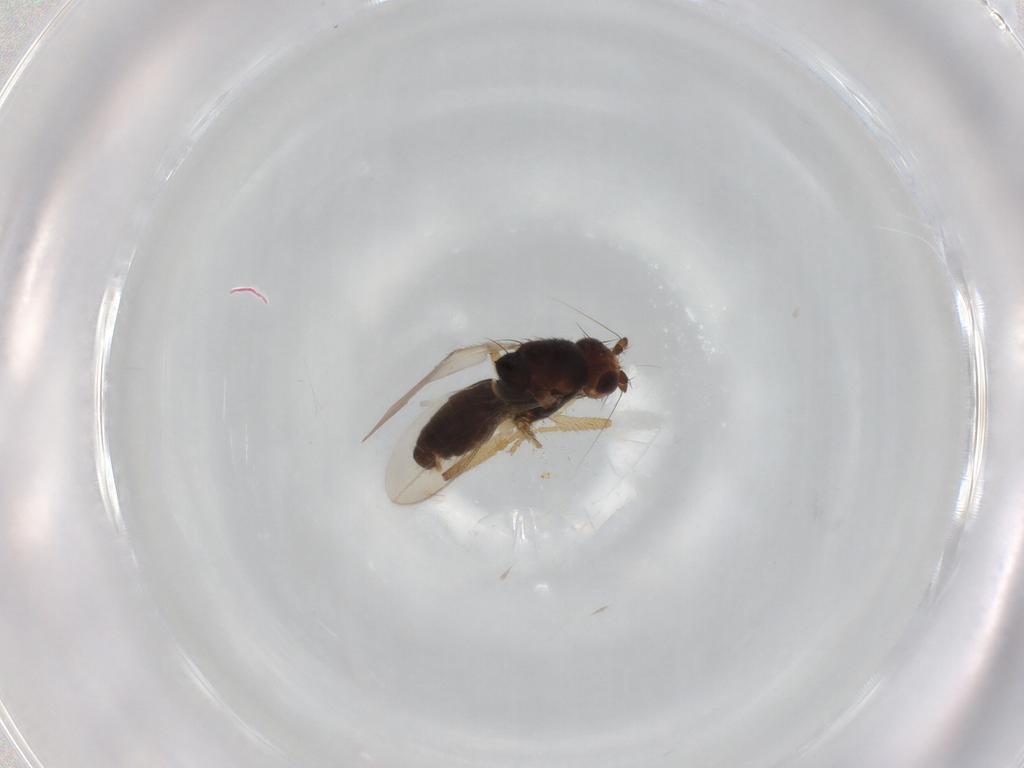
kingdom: Animalia
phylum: Arthropoda
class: Insecta
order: Diptera
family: Sphaeroceridae
